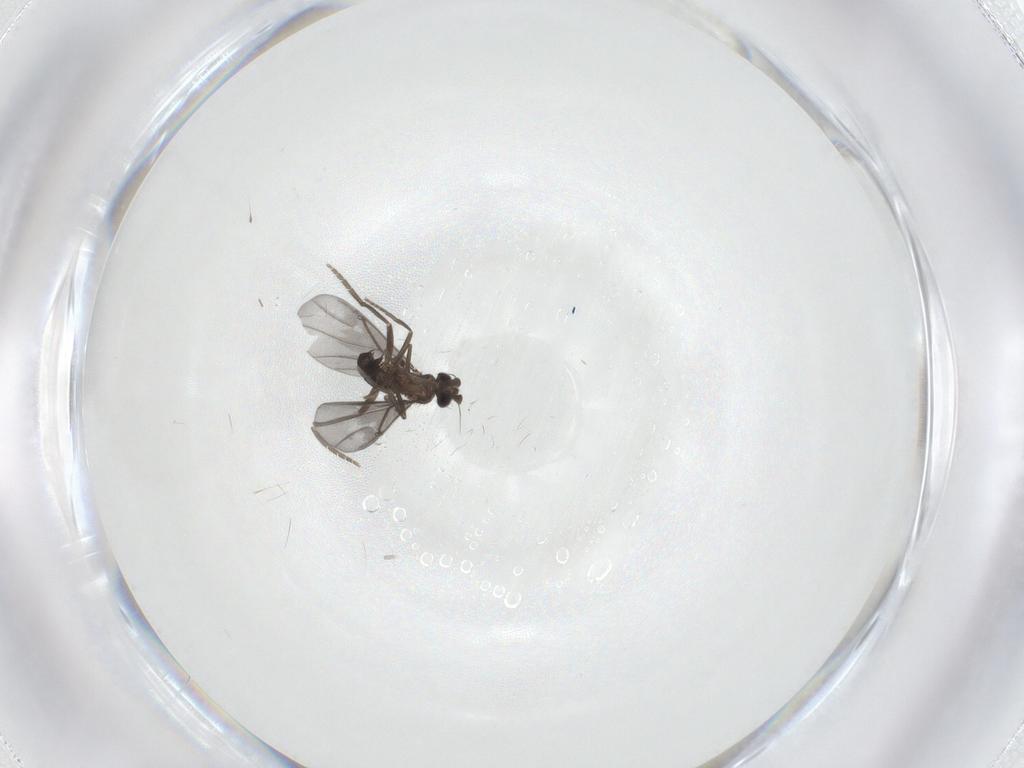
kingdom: Animalia
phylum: Arthropoda
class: Insecta
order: Diptera
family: Phoridae
